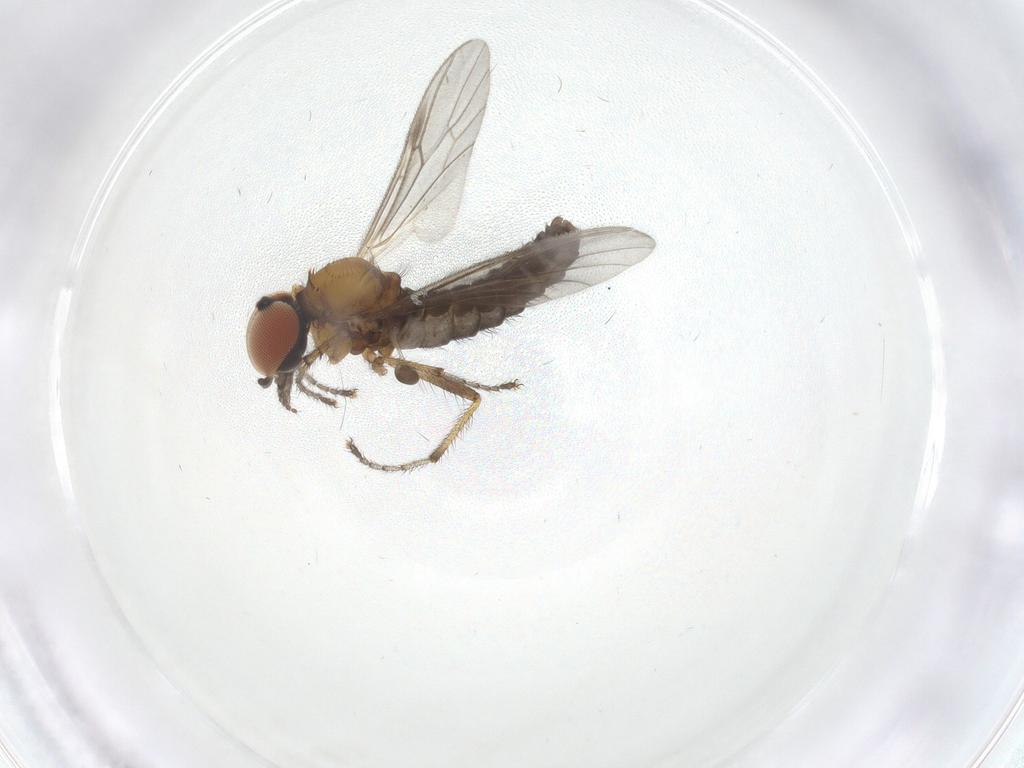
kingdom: Animalia
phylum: Arthropoda
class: Insecta
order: Diptera
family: Bibionidae
